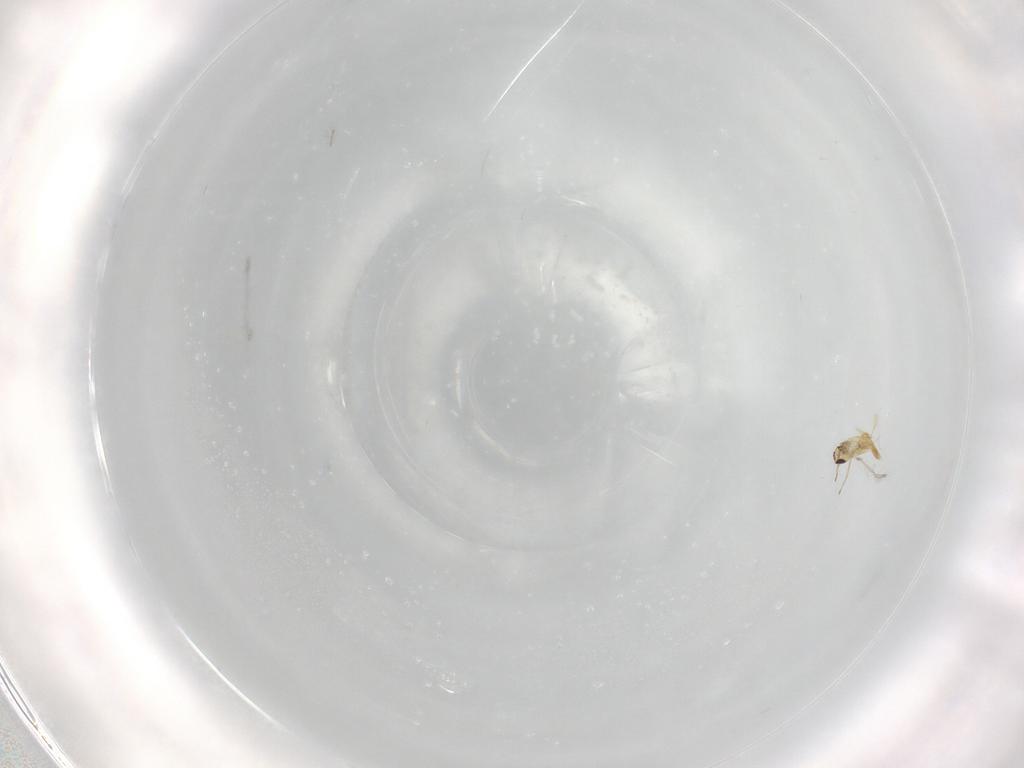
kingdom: Animalia
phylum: Arthropoda
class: Insecta
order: Hymenoptera
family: Mymaridae
